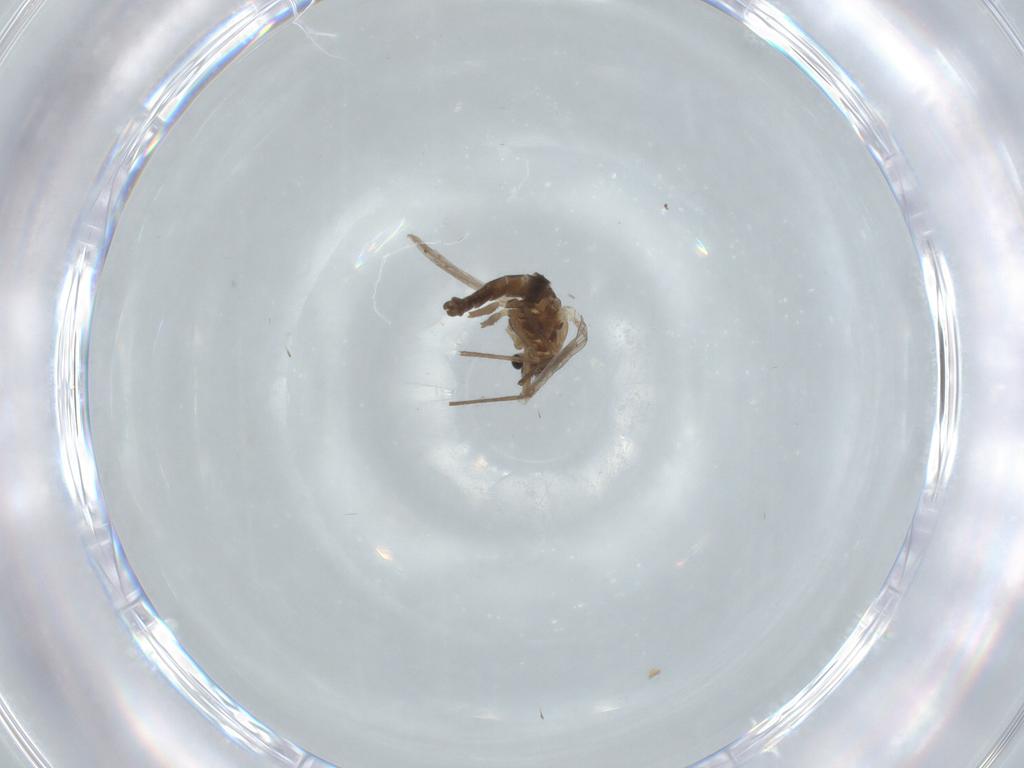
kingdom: Animalia
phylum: Arthropoda
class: Insecta
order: Diptera
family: Chironomidae
